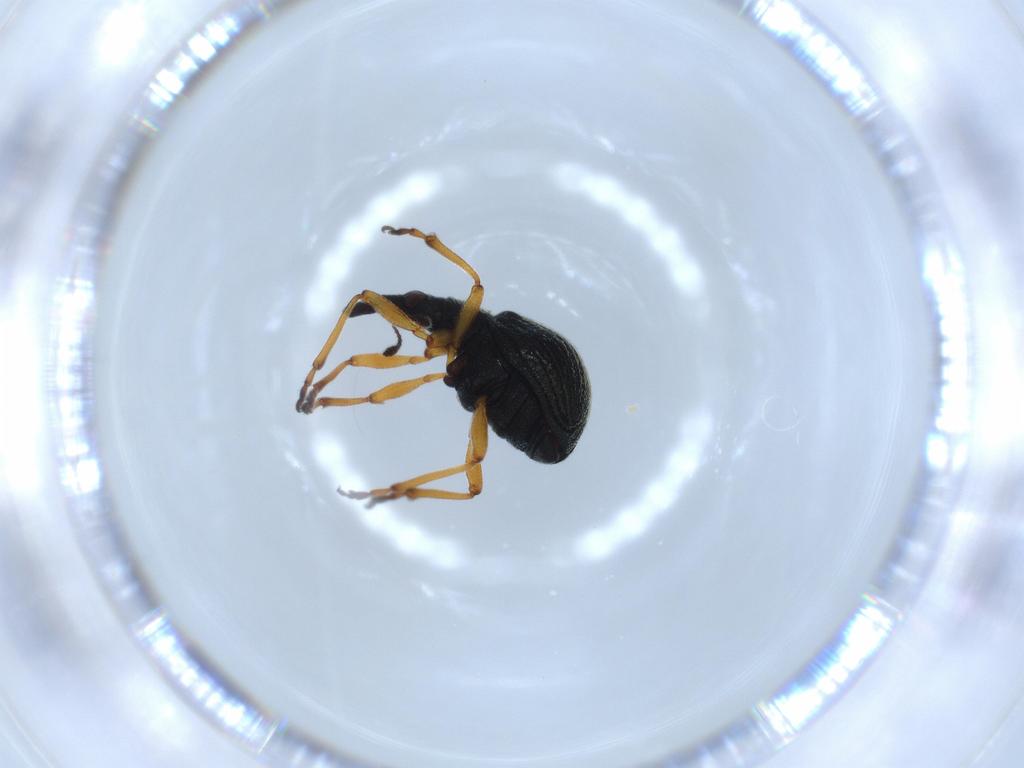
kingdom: Animalia
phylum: Arthropoda
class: Insecta
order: Coleoptera
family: Brentidae
